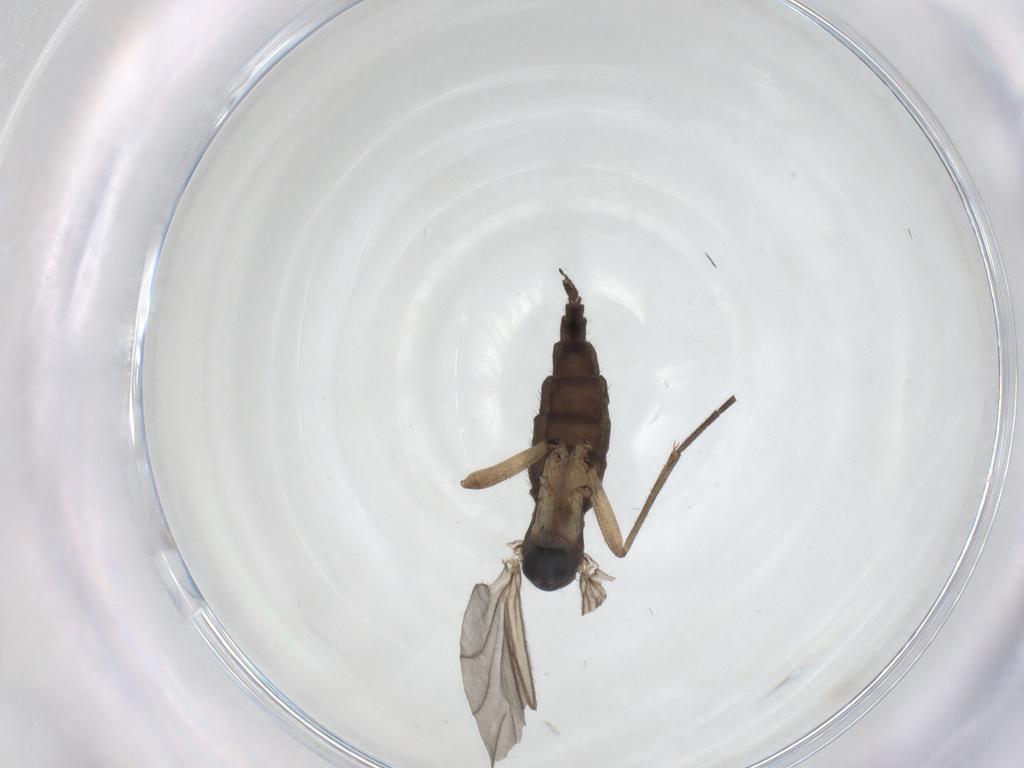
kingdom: Animalia
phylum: Arthropoda
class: Insecta
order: Diptera
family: Sciaridae
